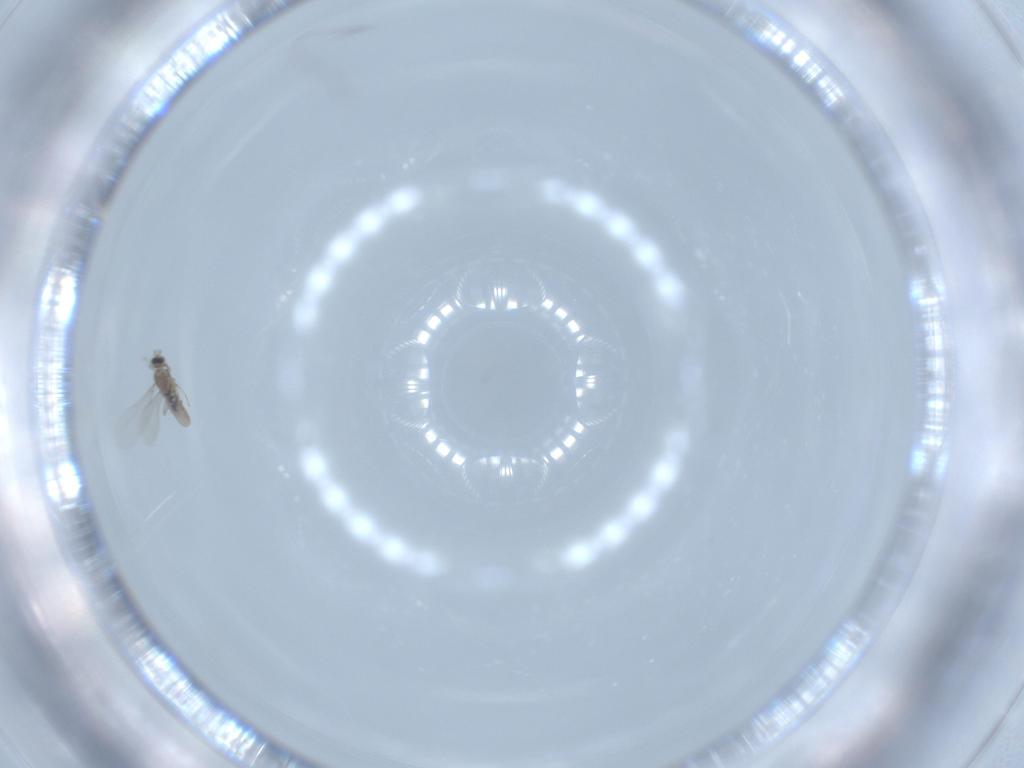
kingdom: Animalia
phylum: Arthropoda
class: Insecta
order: Diptera
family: Cecidomyiidae
